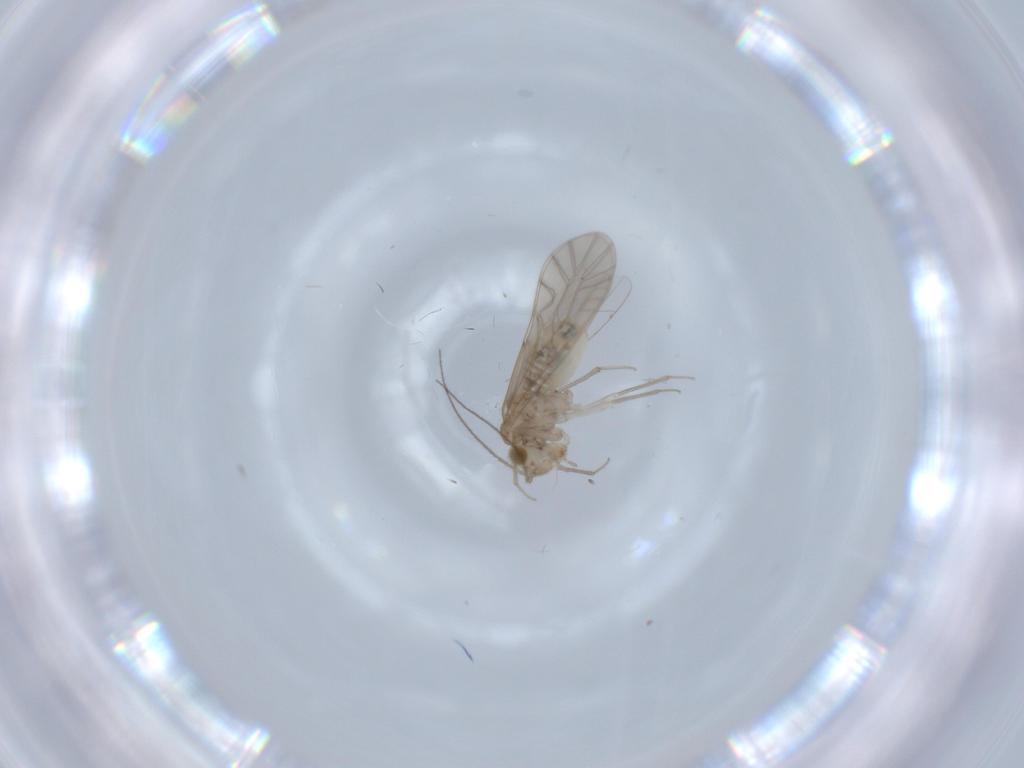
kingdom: Animalia
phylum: Arthropoda
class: Insecta
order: Psocodea
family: Lachesillidae
